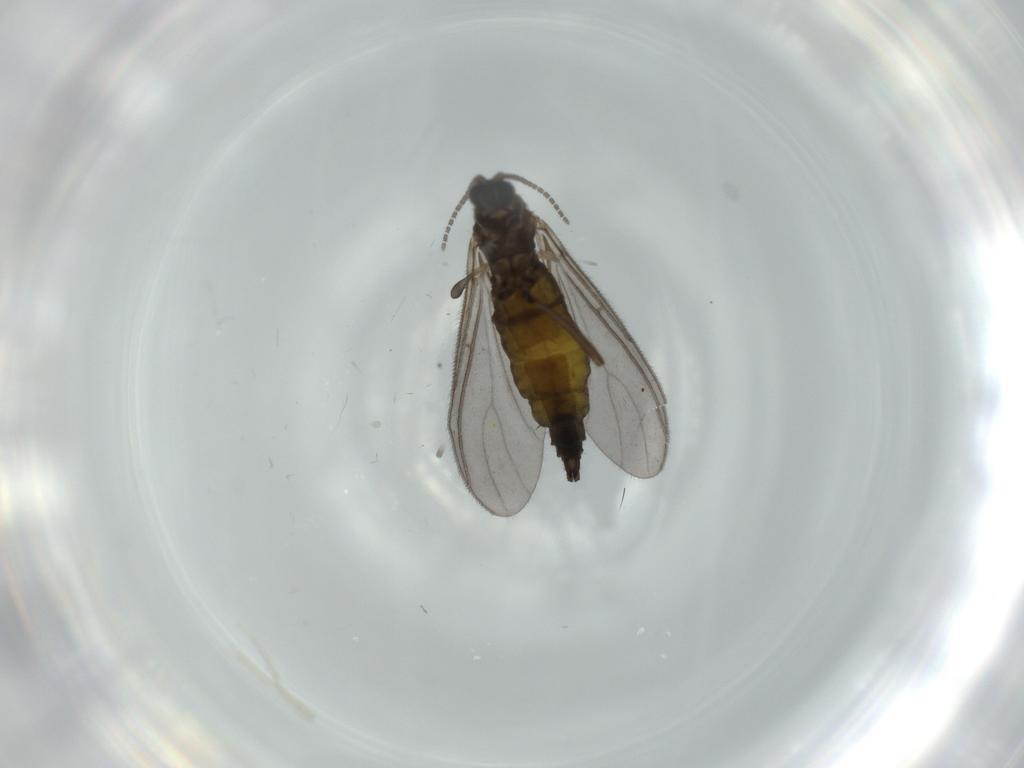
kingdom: Animalia
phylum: Arthropoda
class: Insecta
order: Diptera
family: Sciaridae
